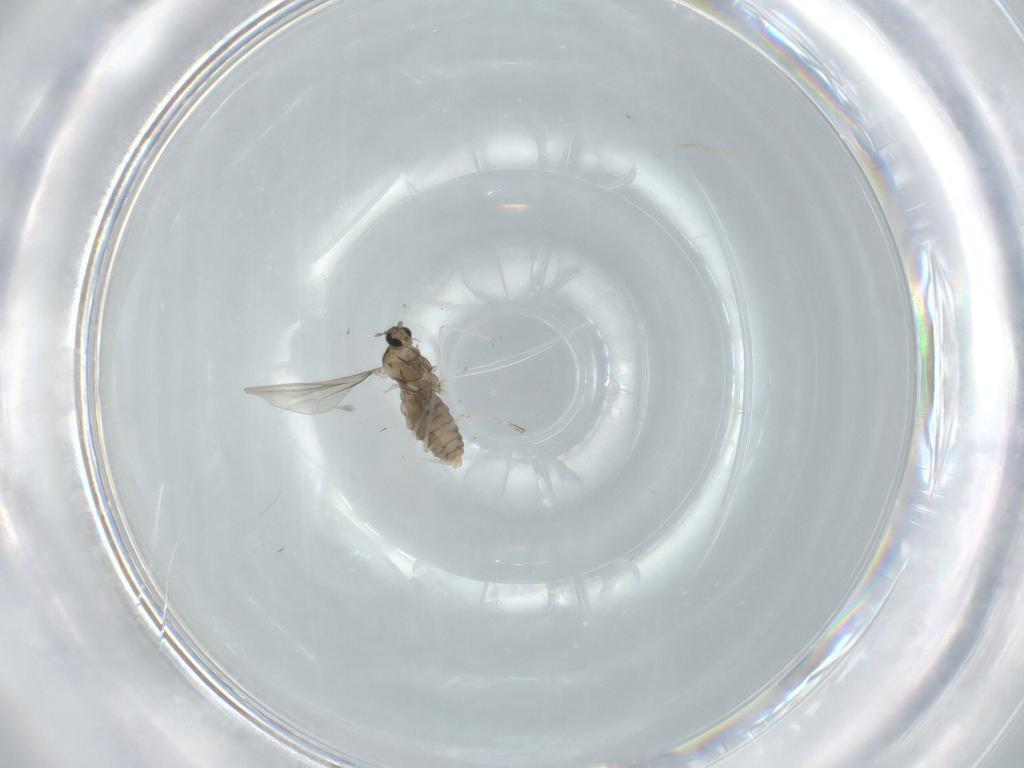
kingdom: Animalia
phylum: Arthropoda
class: Insecta
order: Diptera
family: Cecidomyiidae
